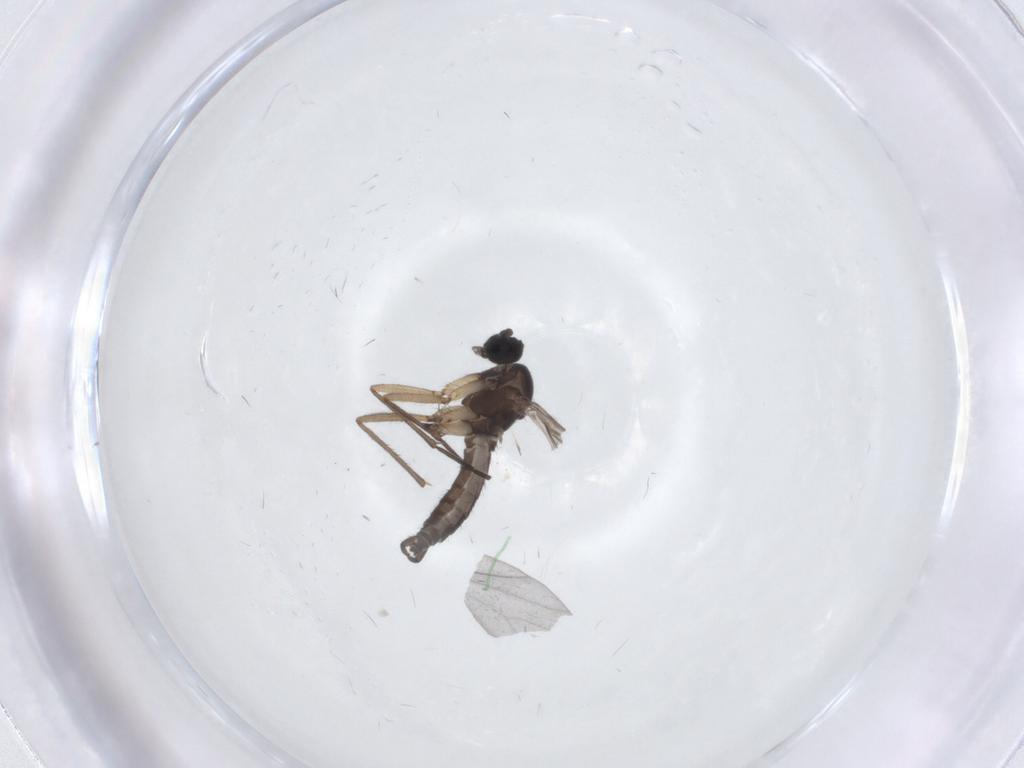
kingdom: Animalia
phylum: Arthropoda
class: Insecta
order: Diptera
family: Sciaridae
